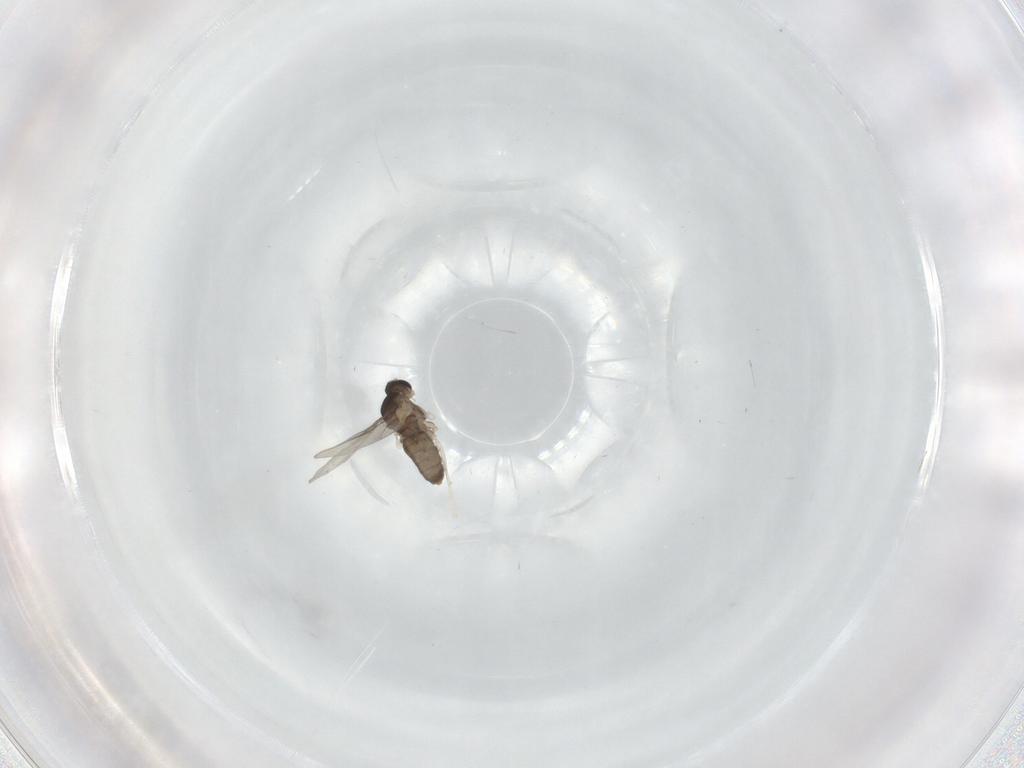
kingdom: Animalia
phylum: Arthropoda
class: Insecta
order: Diptera
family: Cecidomyiidae
